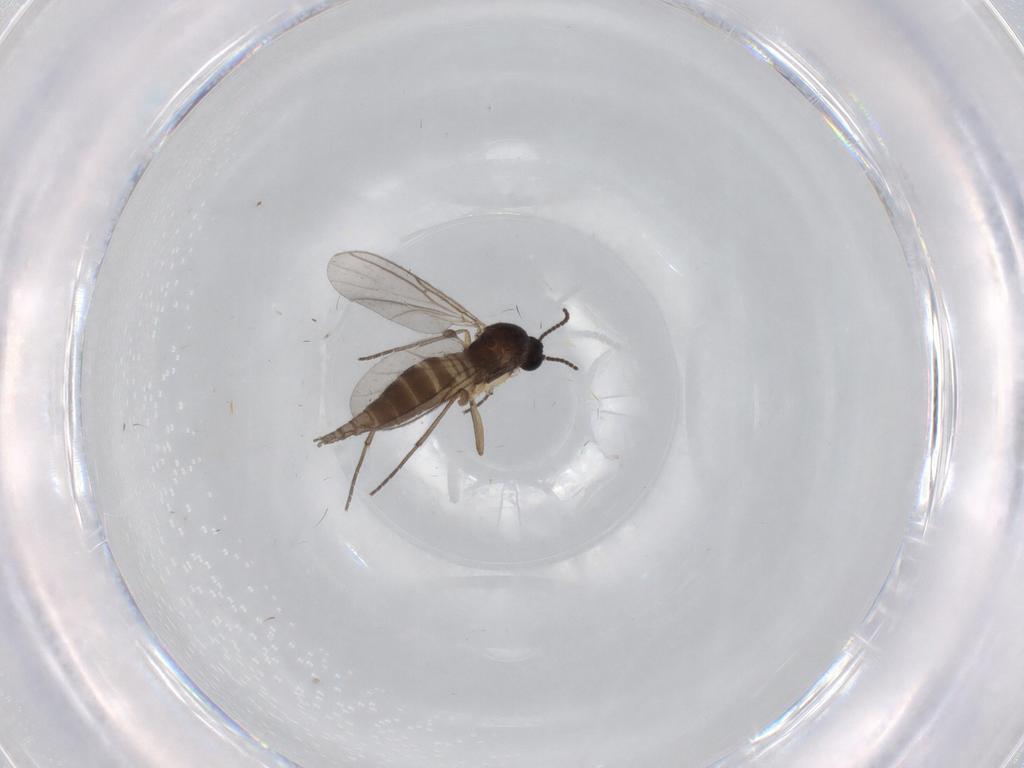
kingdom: Animalia
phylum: Arthropoda
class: Insecta
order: Diptera
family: Sciaridae
